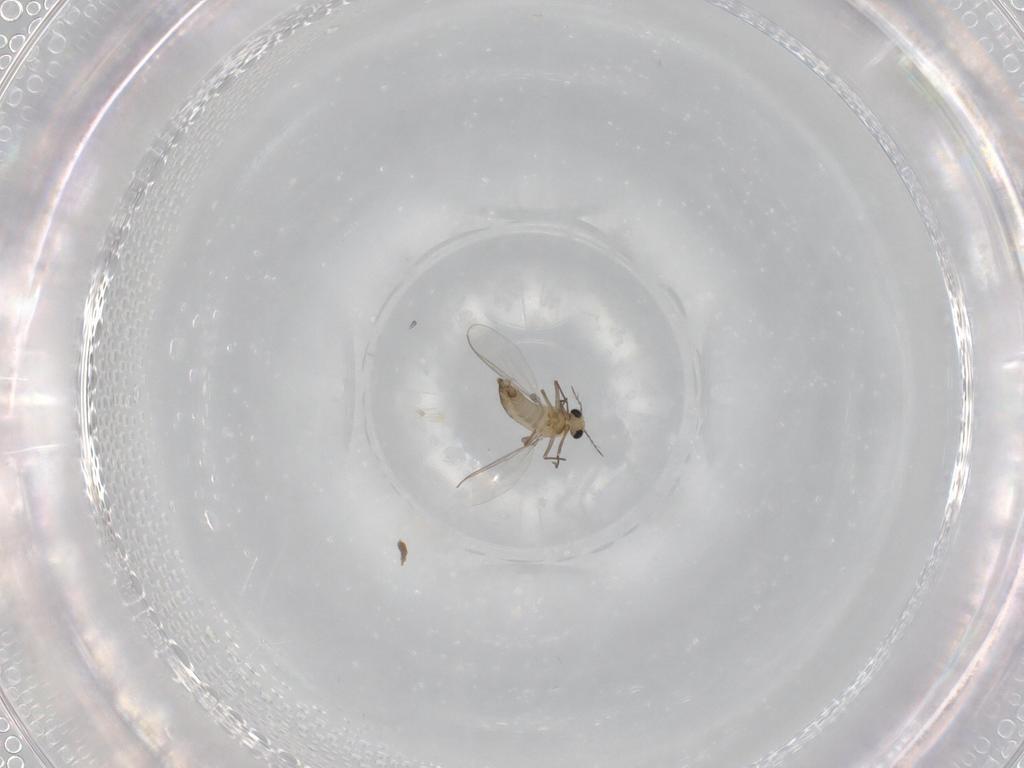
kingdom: Animalia
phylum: Arthropoda
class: Insecta
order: Diptera
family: Chironomidae
